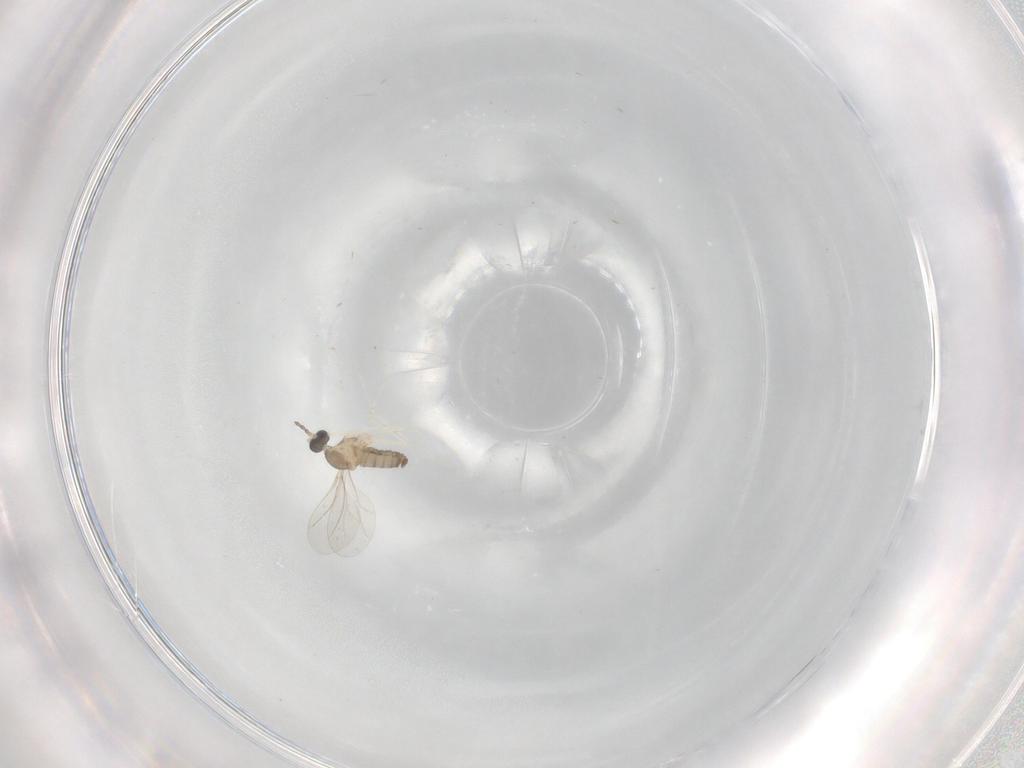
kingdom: Animalia
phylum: Arthropoda
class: Insecta
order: Diptera
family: Cecidomyiidae
